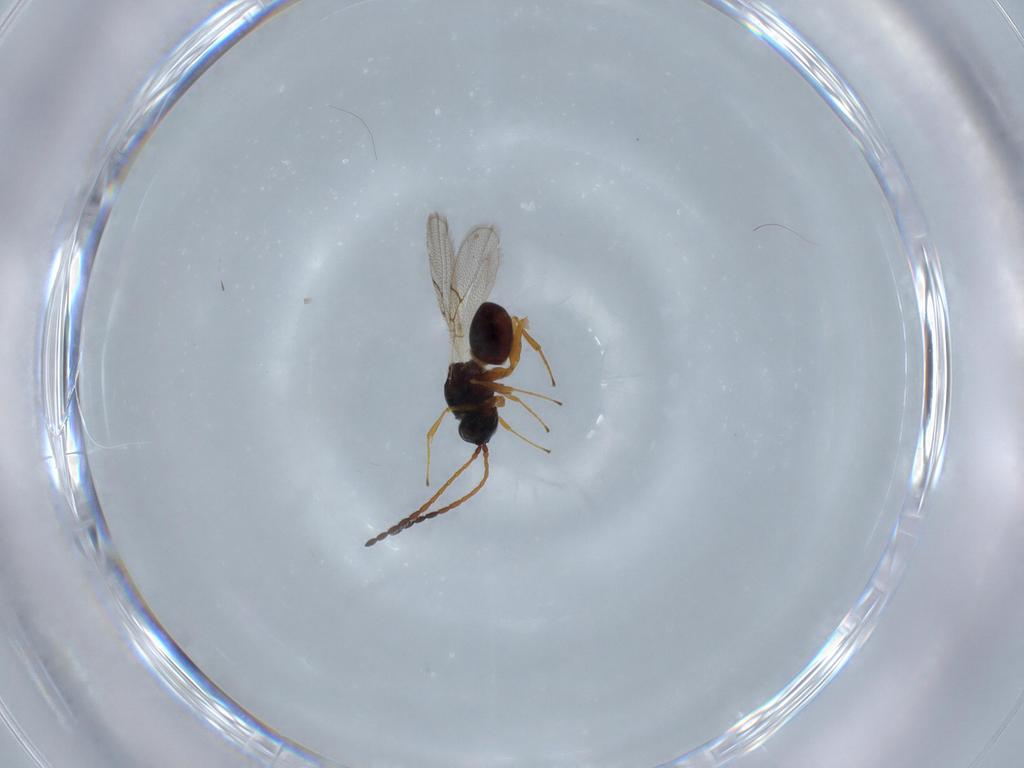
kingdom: Animalia
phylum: Arthropoda
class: Insecta
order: Hymenoptera
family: Figitidae
